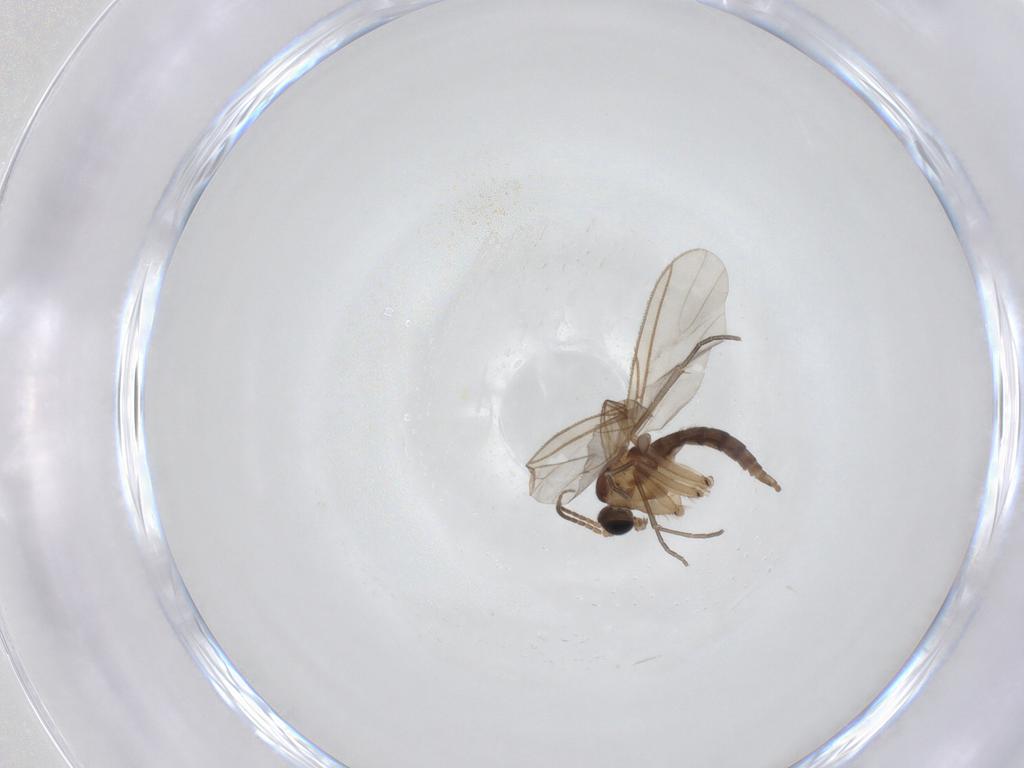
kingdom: Animalia
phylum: Arthropoda
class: Insecta
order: Diptera
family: Sciaridae
